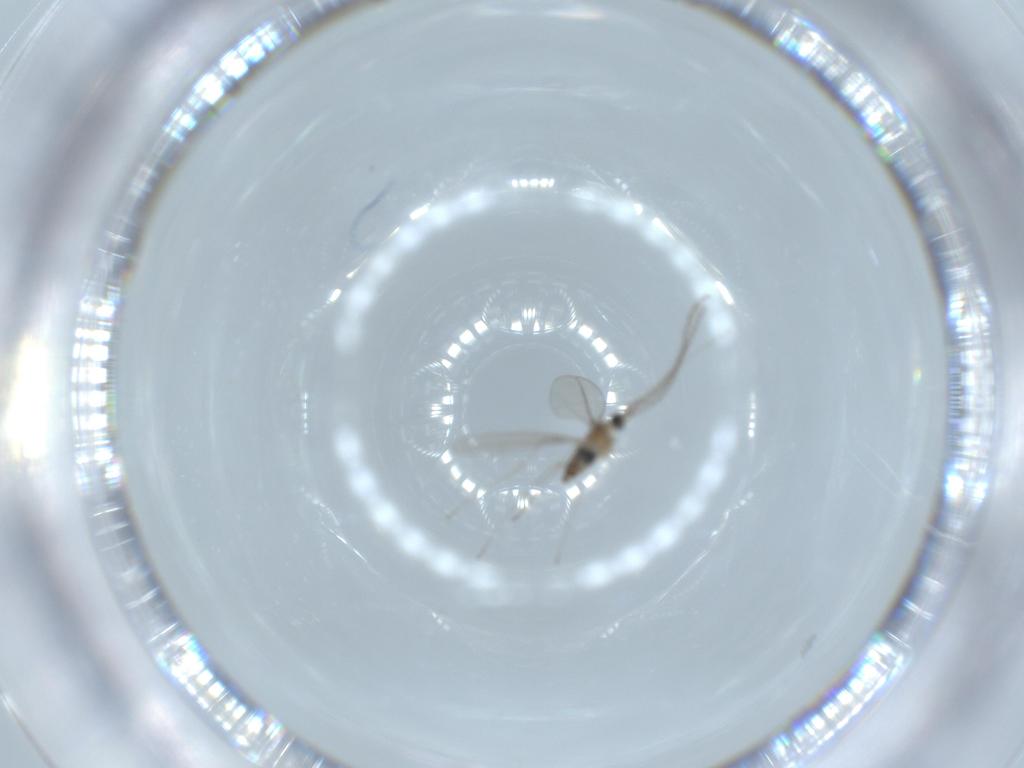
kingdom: Animalia
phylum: Arthropoda
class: Insecta
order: Diptera
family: Cecidomyiidae
